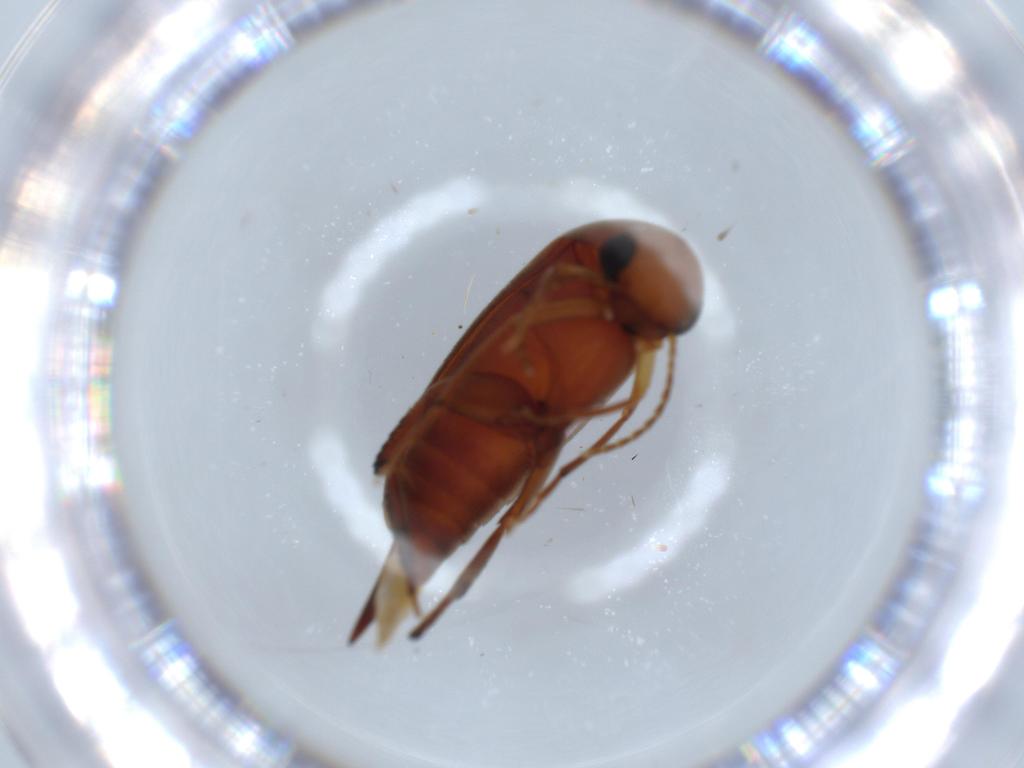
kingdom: Animalia
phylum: Arthropoda
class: Insecta
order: Coleoptera
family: Mordellidae
